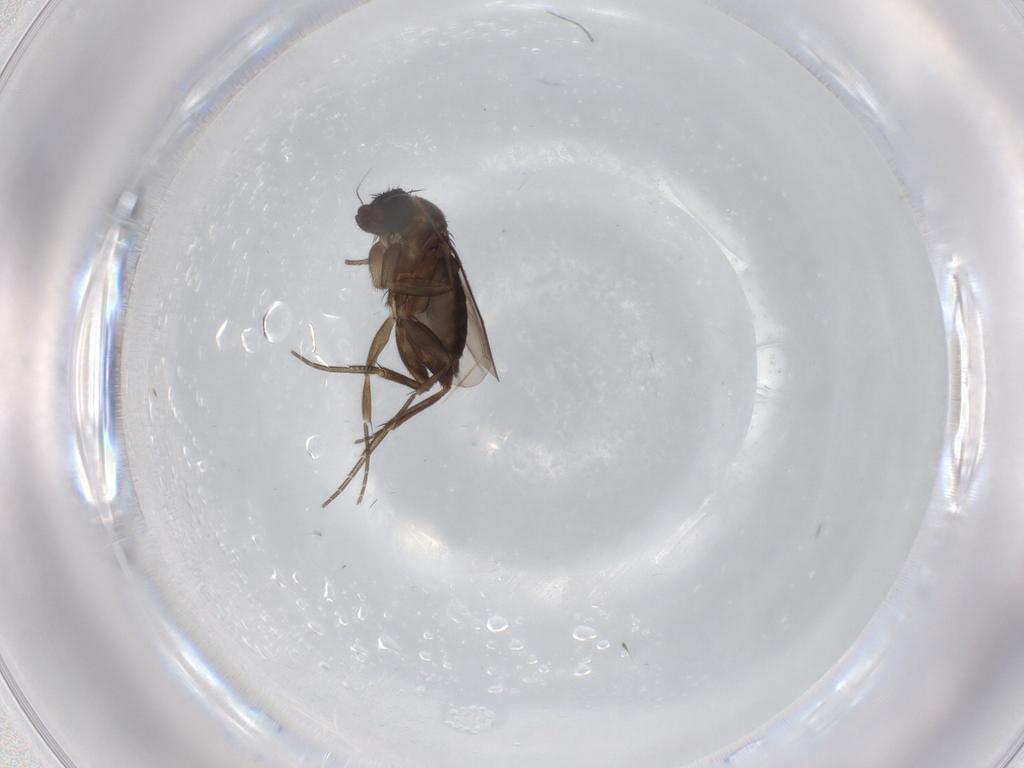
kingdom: Animalia
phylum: Arthropoda
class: Insecta
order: Diptera
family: Phoridae
